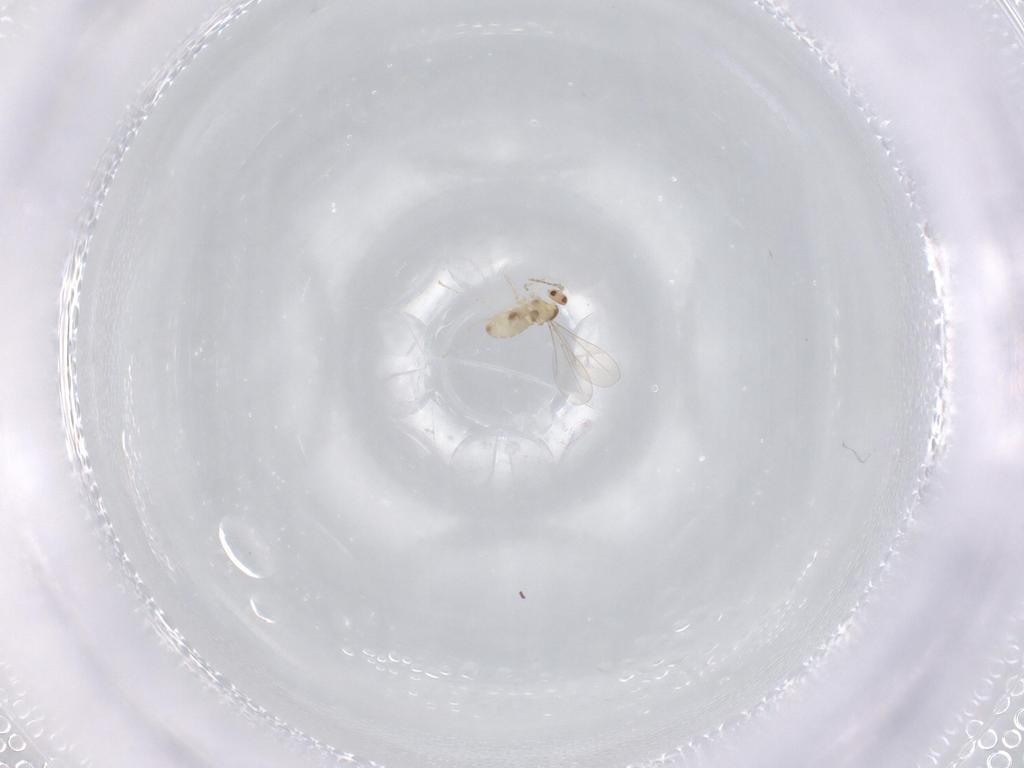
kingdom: Animalia
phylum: Arthropoda
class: Insecta
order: Diptera
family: Cecidomyiidae
